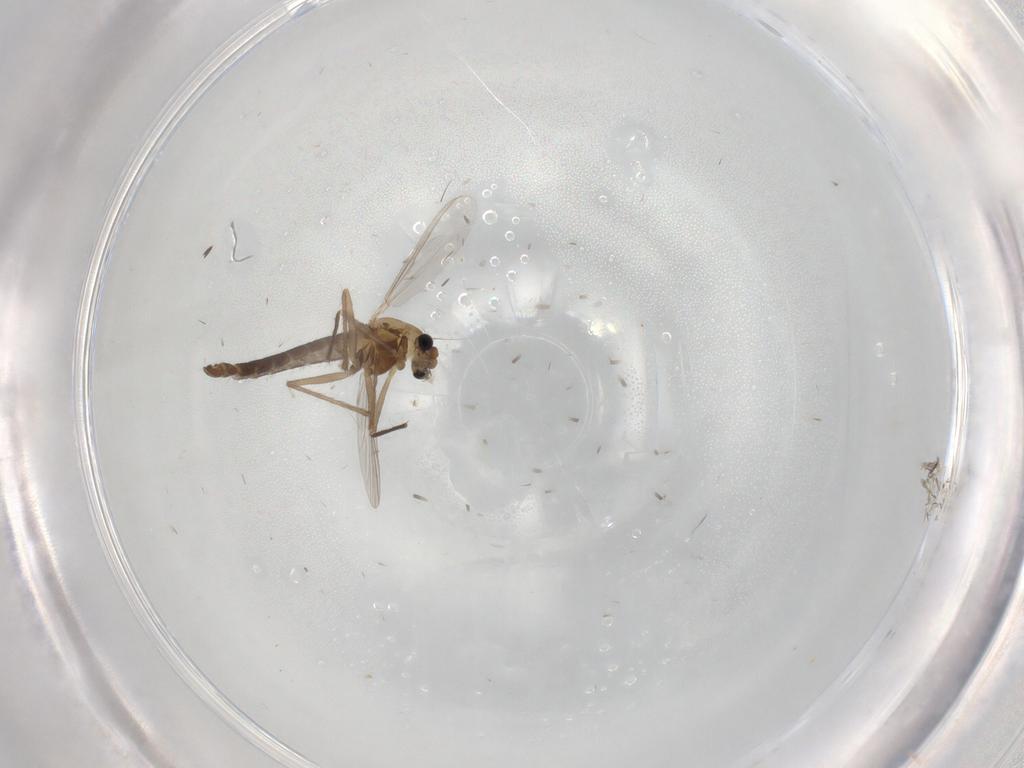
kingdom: Animalia
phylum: Arthropoda
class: Insecta
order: Diptera
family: Chironomidae
